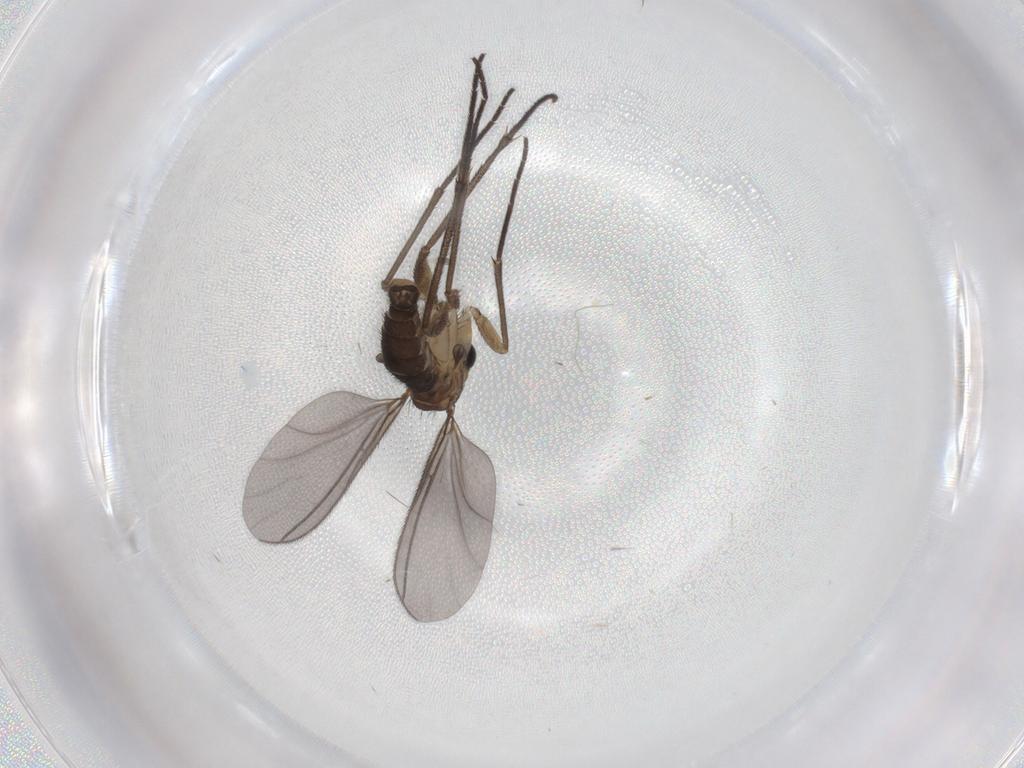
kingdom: Animalia
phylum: Arthropoda
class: Insecta
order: Diptera
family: Sciaridae
